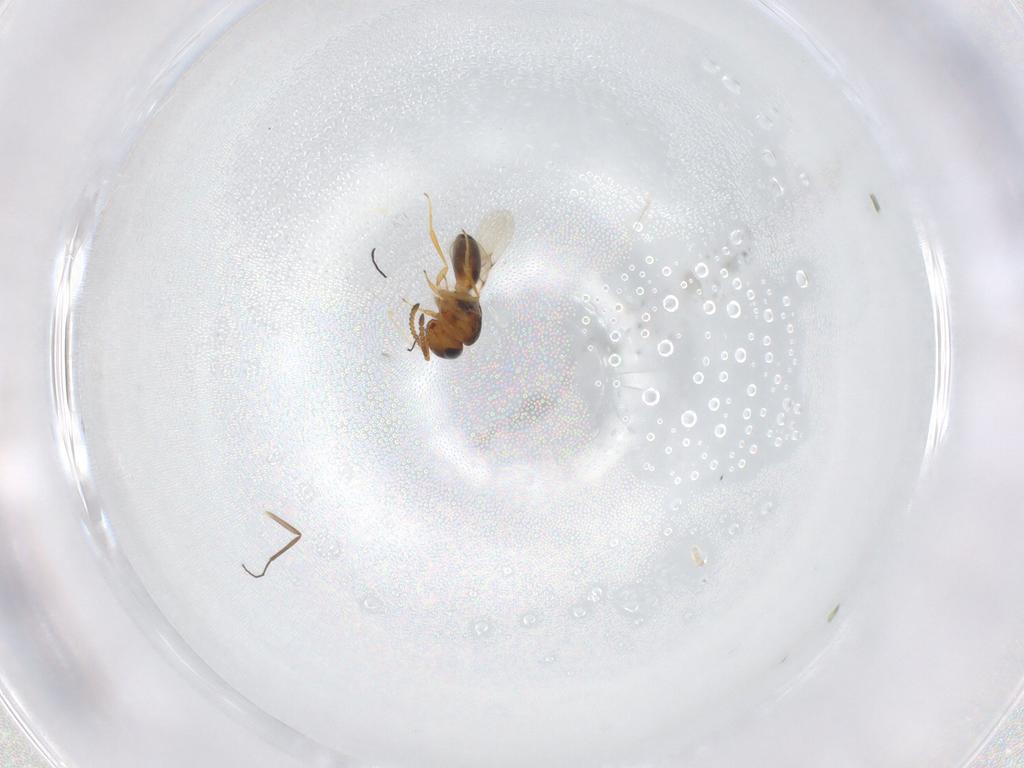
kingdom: Animalia
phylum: Arthropoda
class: Insecta
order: Hymenoptera
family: Scelionidae
